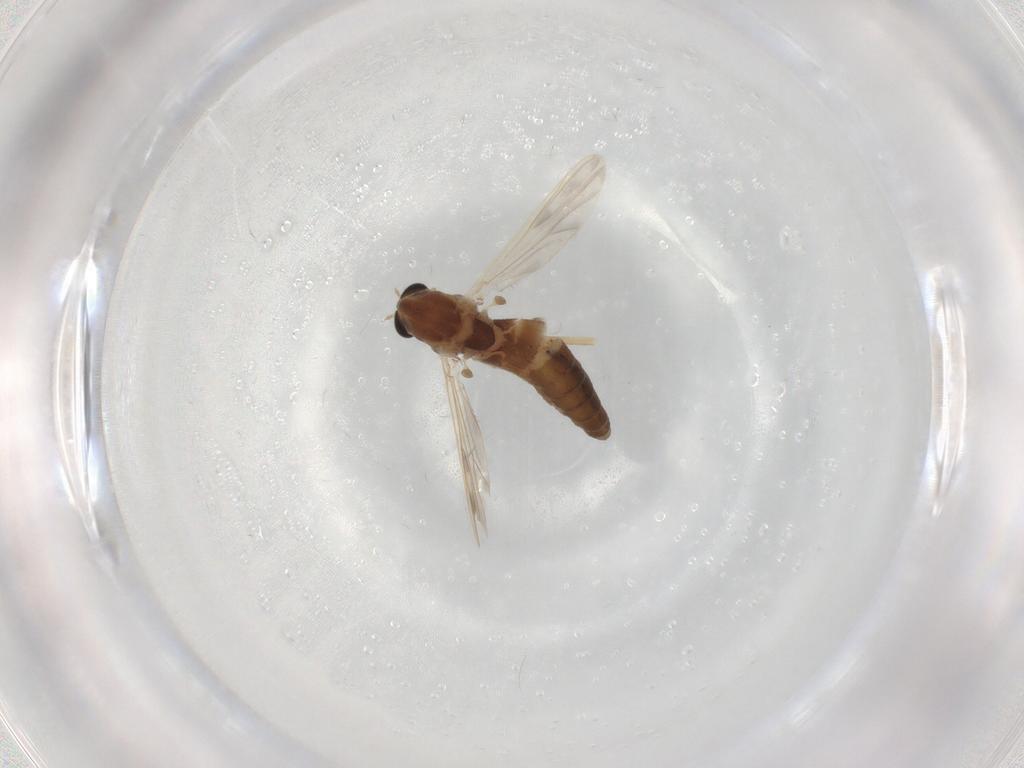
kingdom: Animalia
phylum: Arthropoda
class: Insecta
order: Diptera
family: Chironomidae
